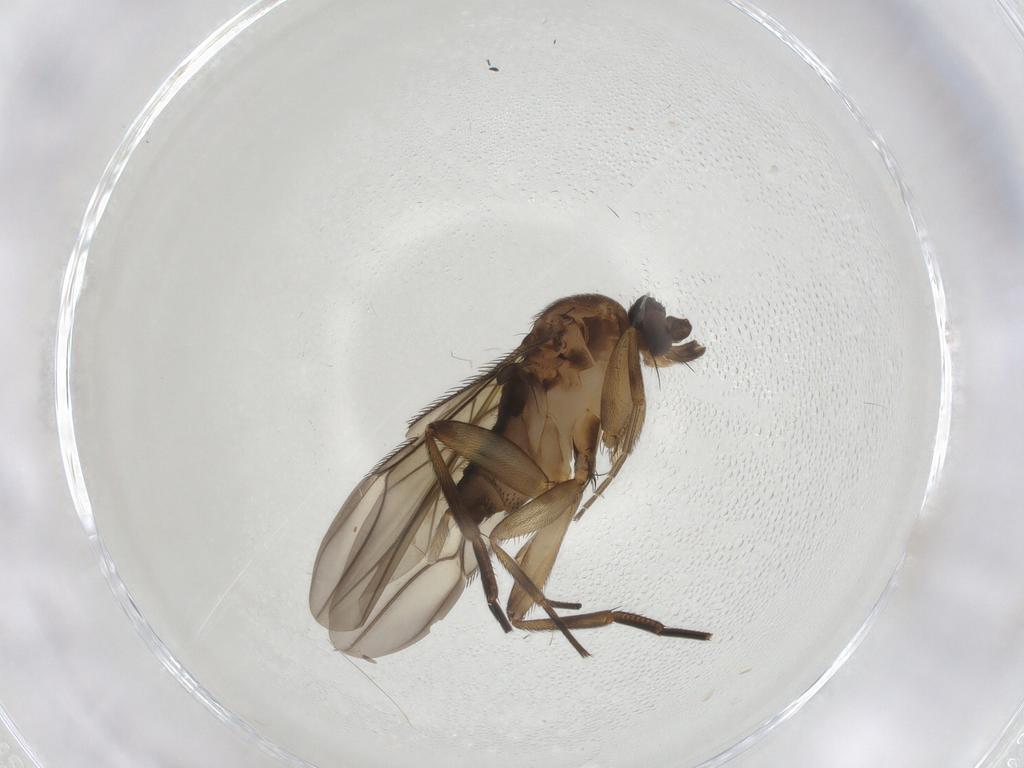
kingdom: Animalia
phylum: Arthropoda
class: Insecta
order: Diptera
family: Phoridae
